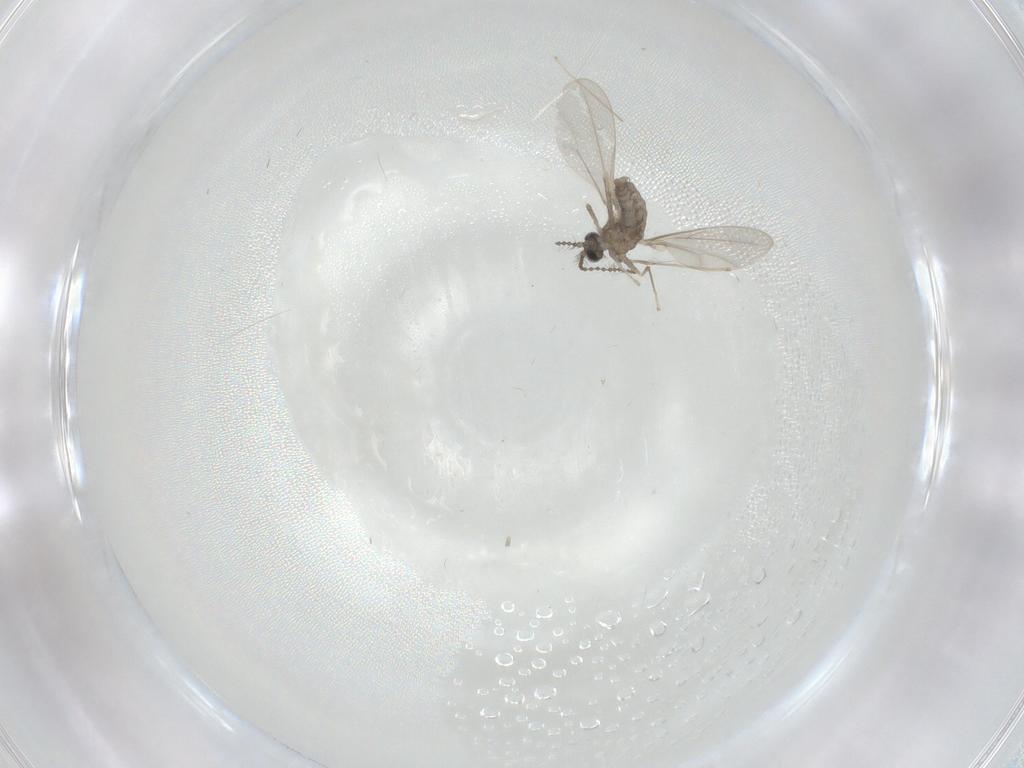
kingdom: Animalia
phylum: Arthropoda
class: Insecta
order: Diptera
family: Cecidomyiidae
